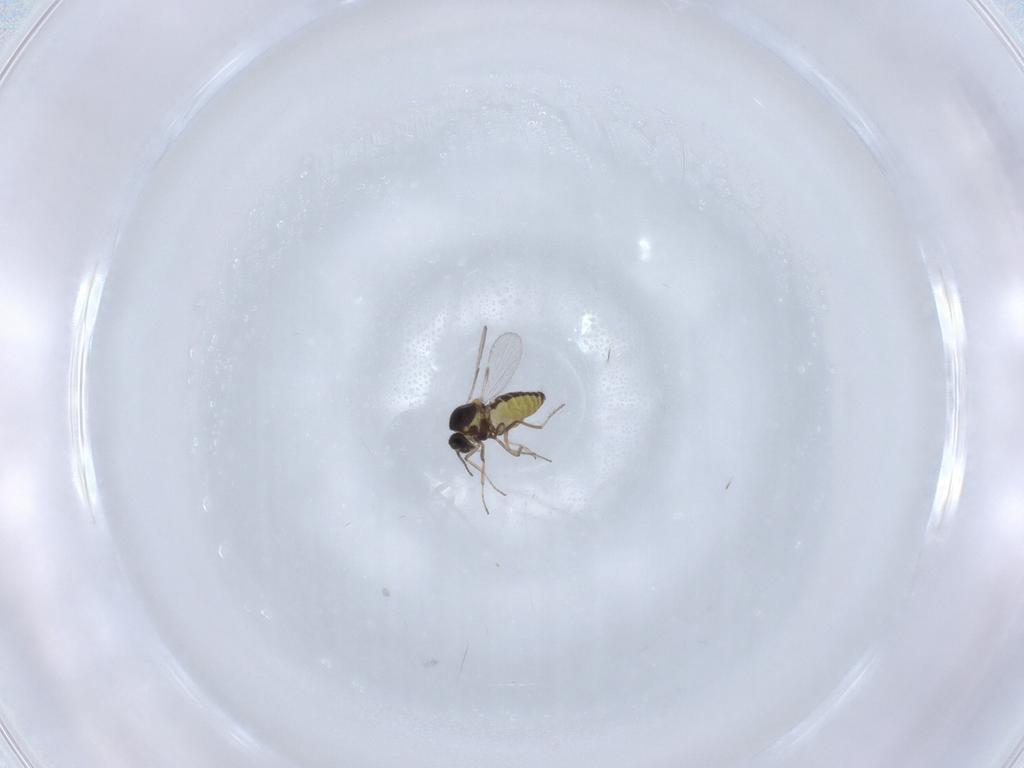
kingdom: Animalia
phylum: Arthropoda
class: Insecta
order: Diptera
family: Ceratopogonidae
